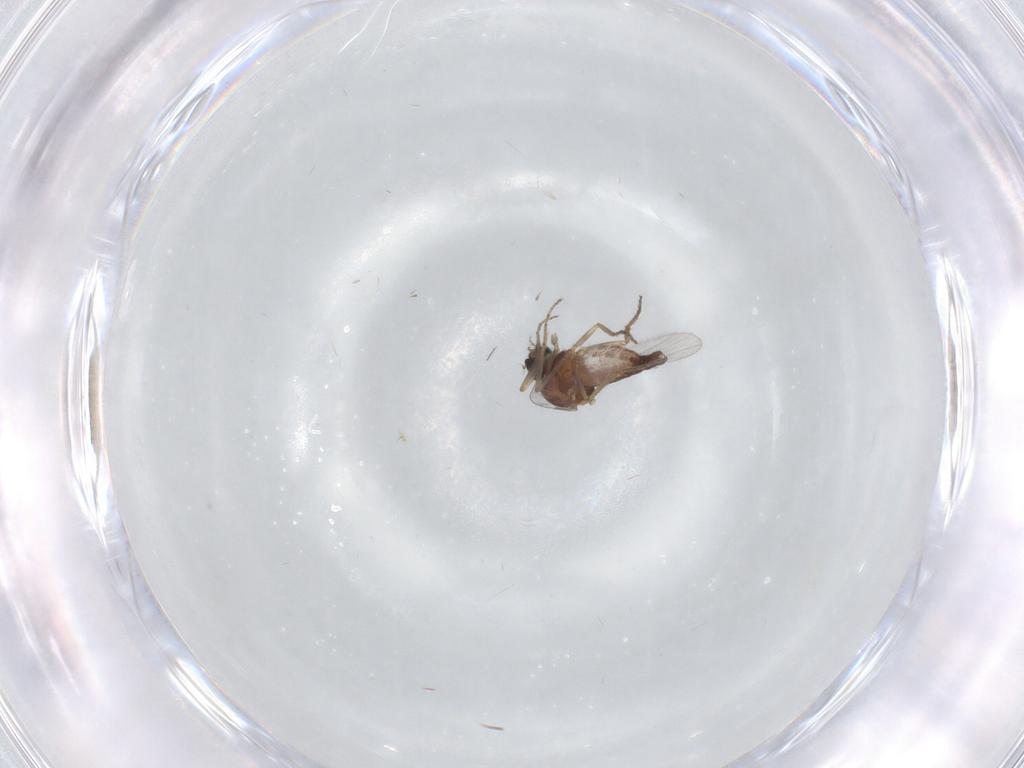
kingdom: Animalia
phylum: Arthropoda
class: Insecta
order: Diptera
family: Ceratopogonidae
